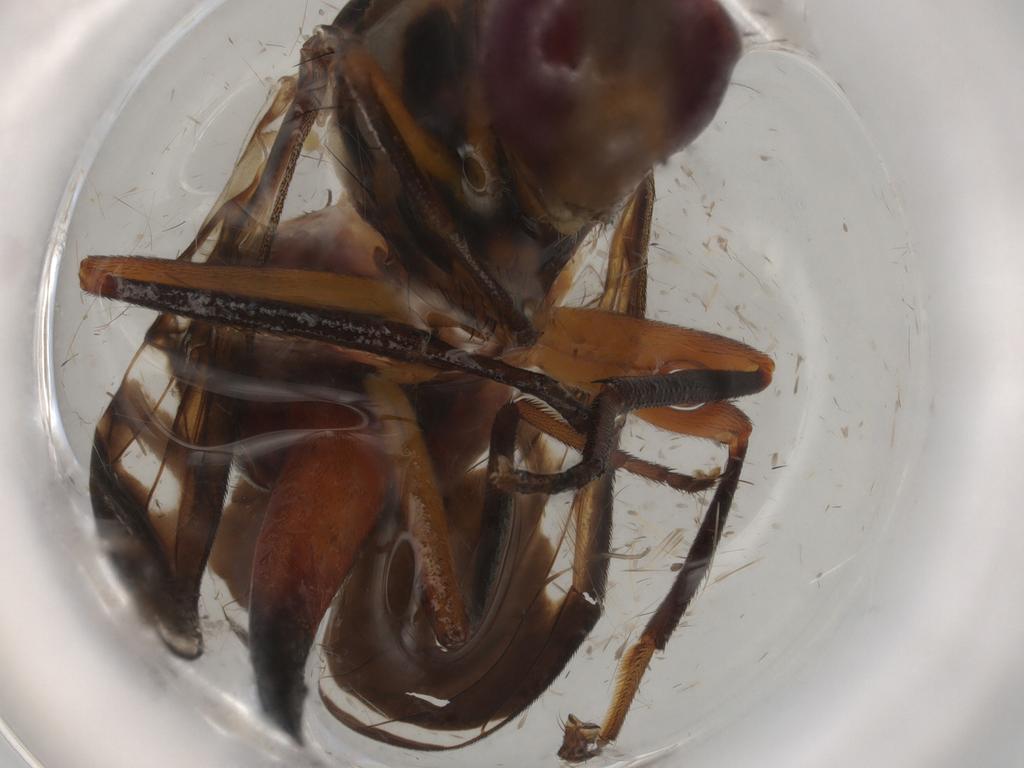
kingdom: Animalia
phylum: Arthropoda
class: Insecta
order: Diptera
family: Tephritidae
